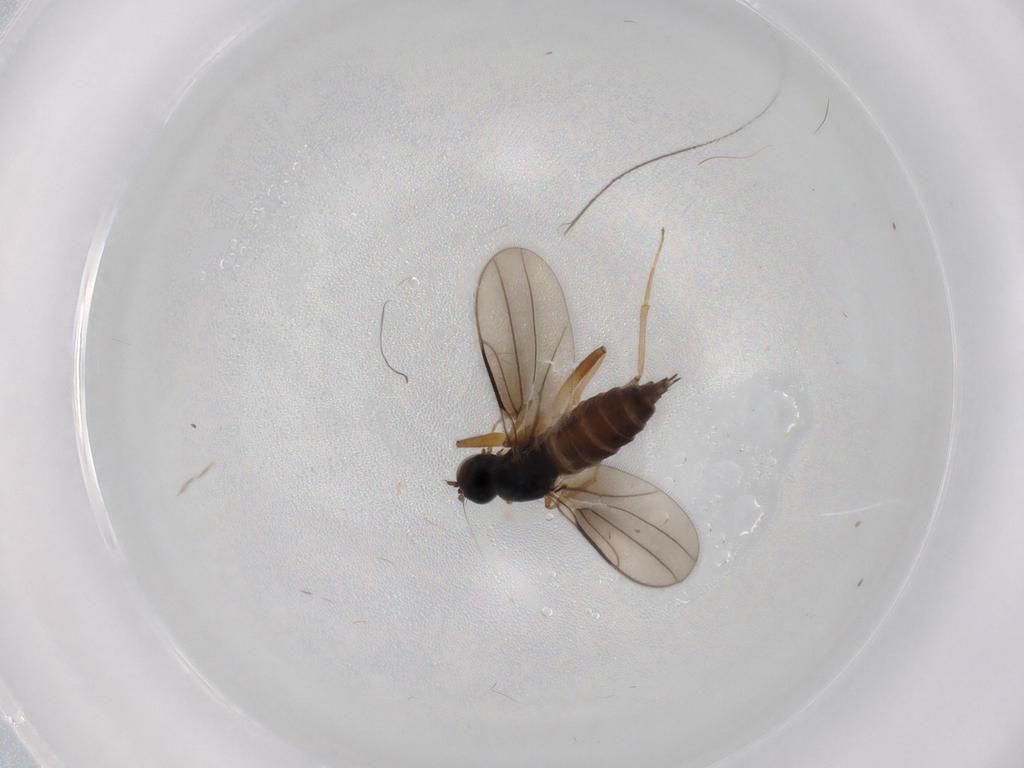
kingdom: Animalia
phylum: Arthropoda
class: Insecta
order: Diptera
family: Hybotidae
